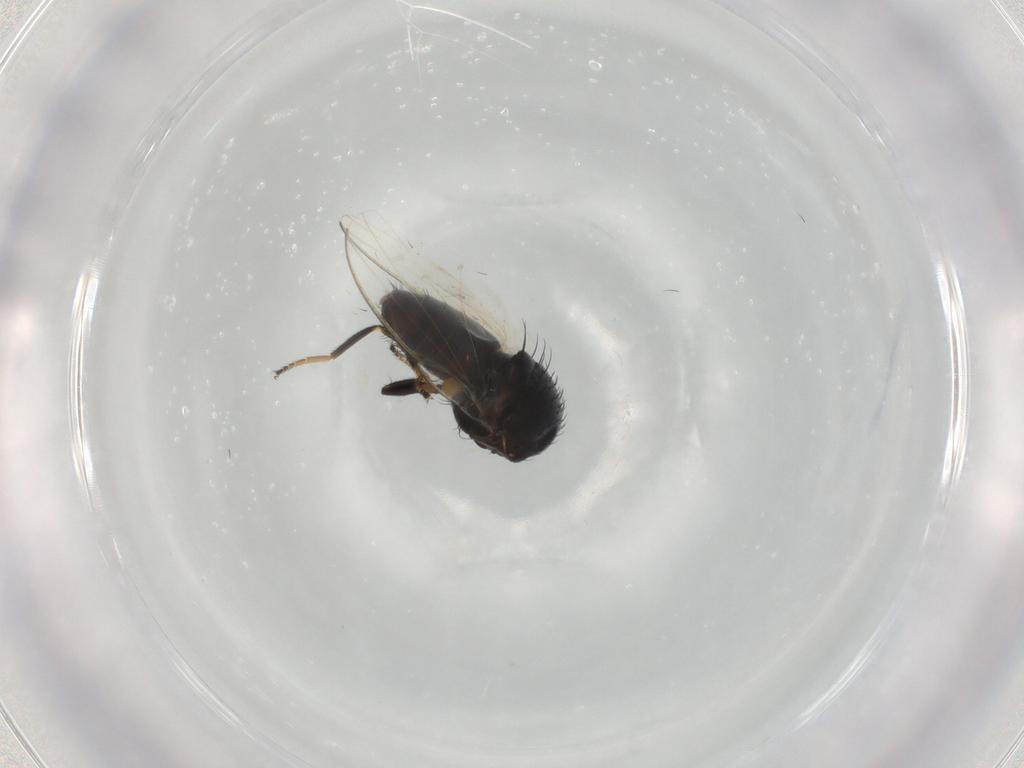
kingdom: Animalia
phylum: Arthropoda
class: Insecta
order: Diptera
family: Milichiidae
